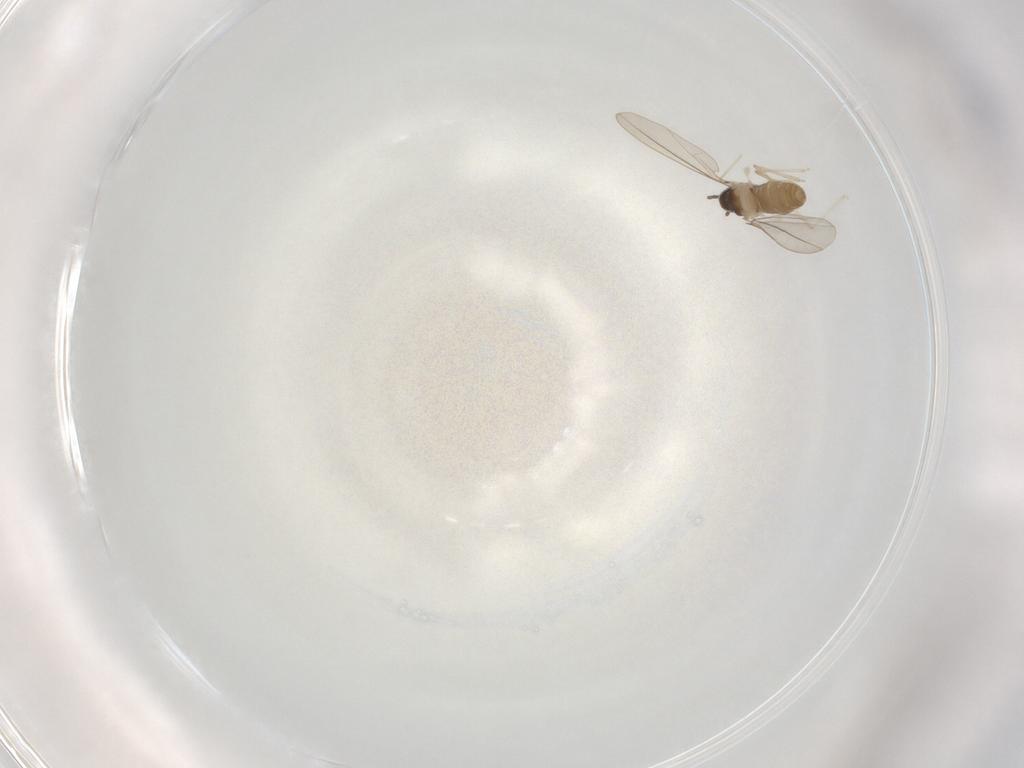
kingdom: Animalia
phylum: Arthropoda
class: Insecta
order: Diptera
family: Cecidomyiidae
